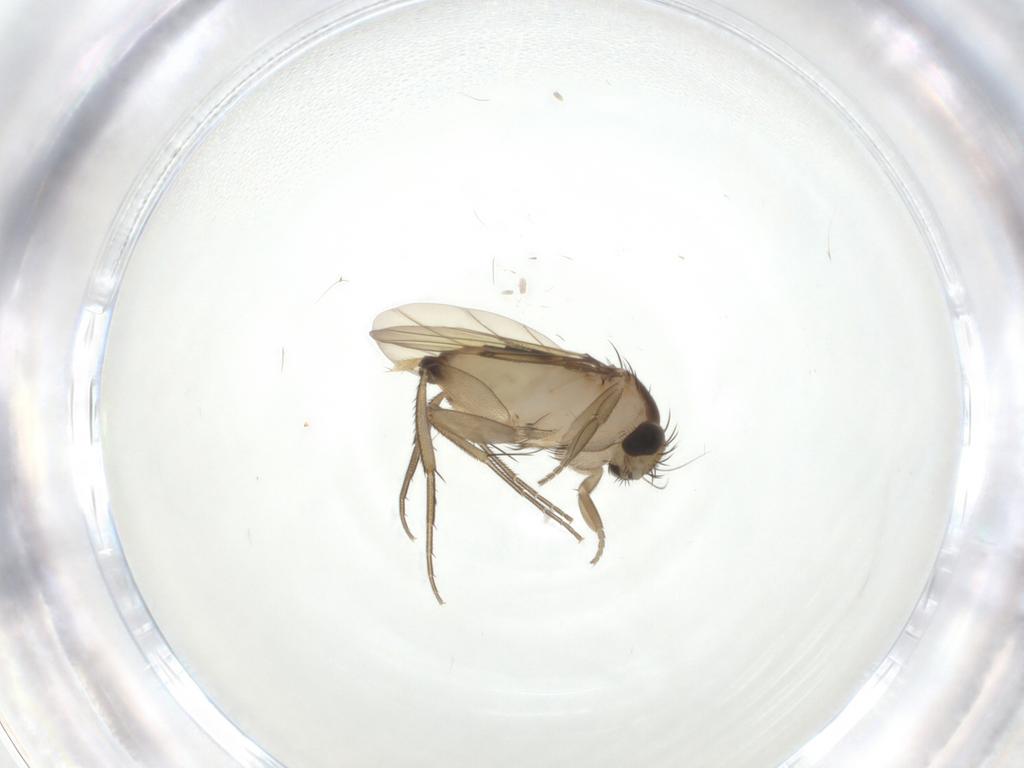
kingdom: Animalia
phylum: Arthropoda
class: Insecta
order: Diptera
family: Phoridae
